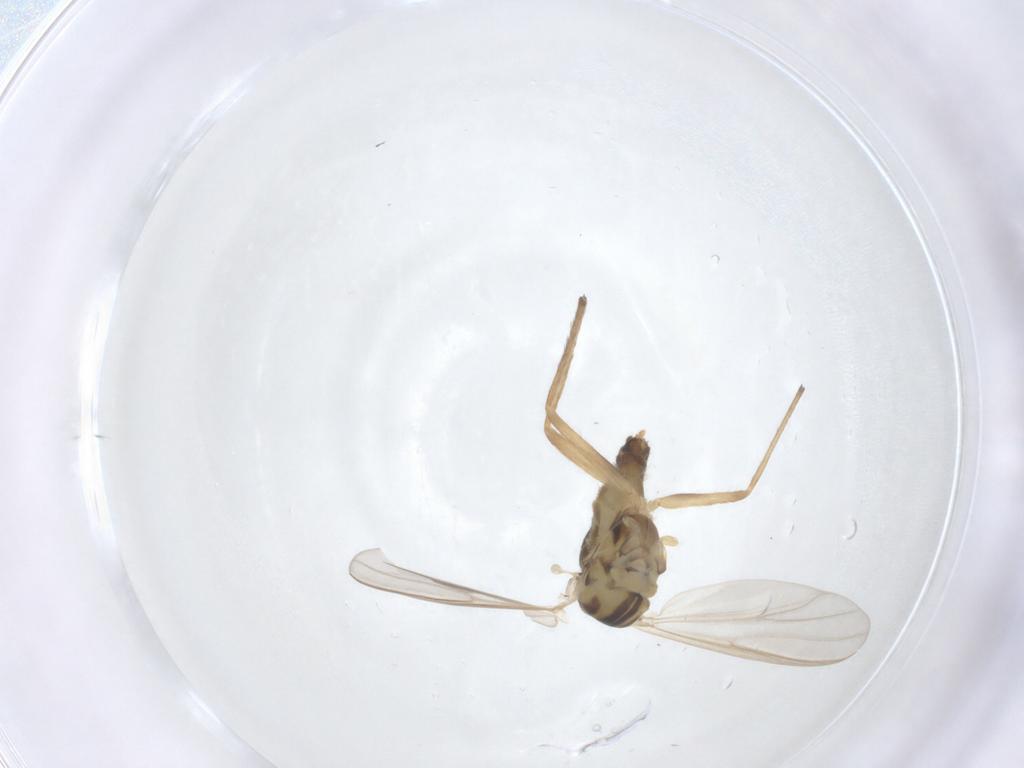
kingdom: Animalia
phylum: Arthropoda
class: Insecta
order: Diptera
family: Chironomidae
